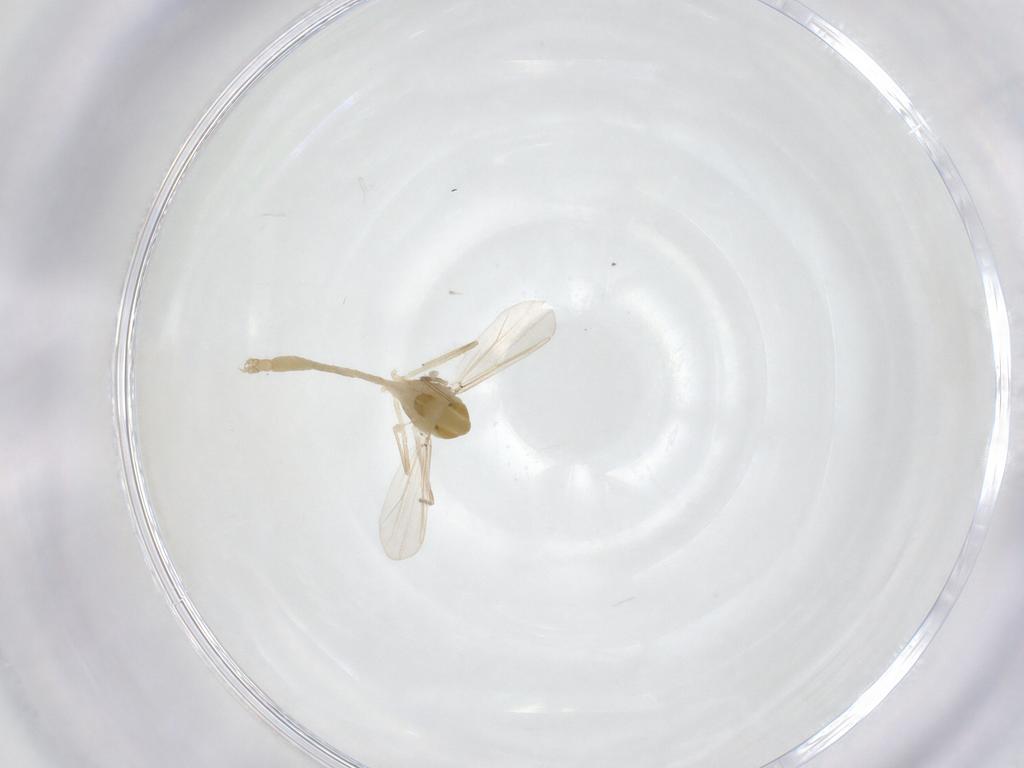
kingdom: Animalia
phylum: Arthropoda
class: Insecta
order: Diptera
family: Chironomidae
